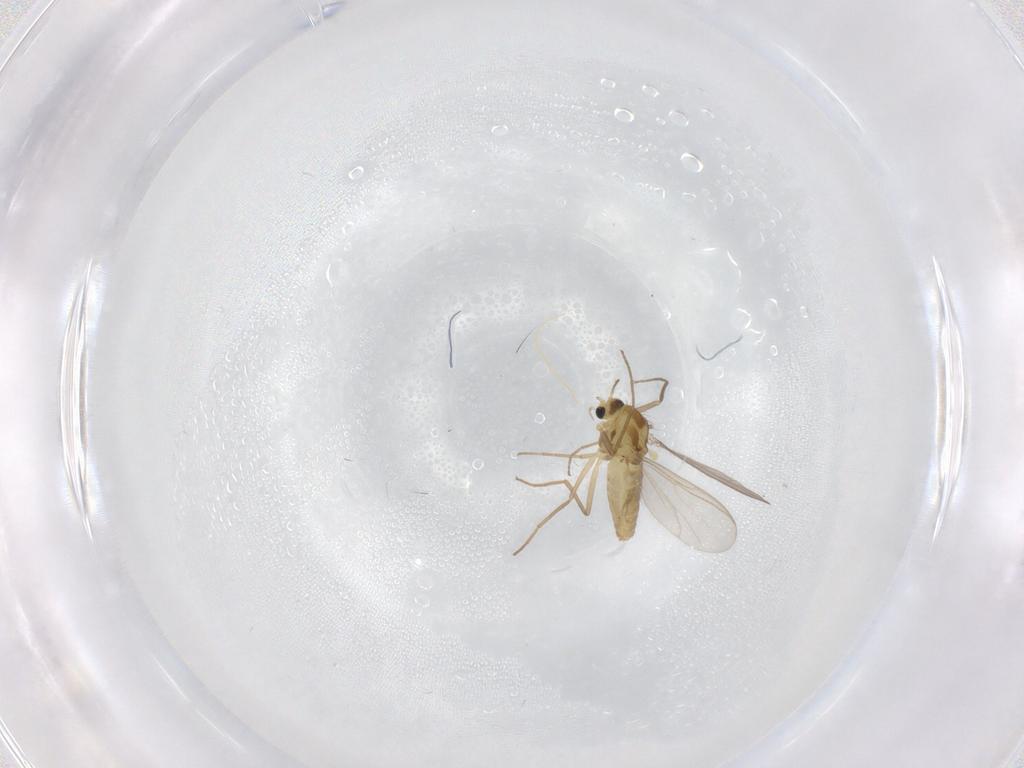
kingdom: Animalia
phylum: Arthropoda
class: Insecta
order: Diptera
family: Chironomidae
